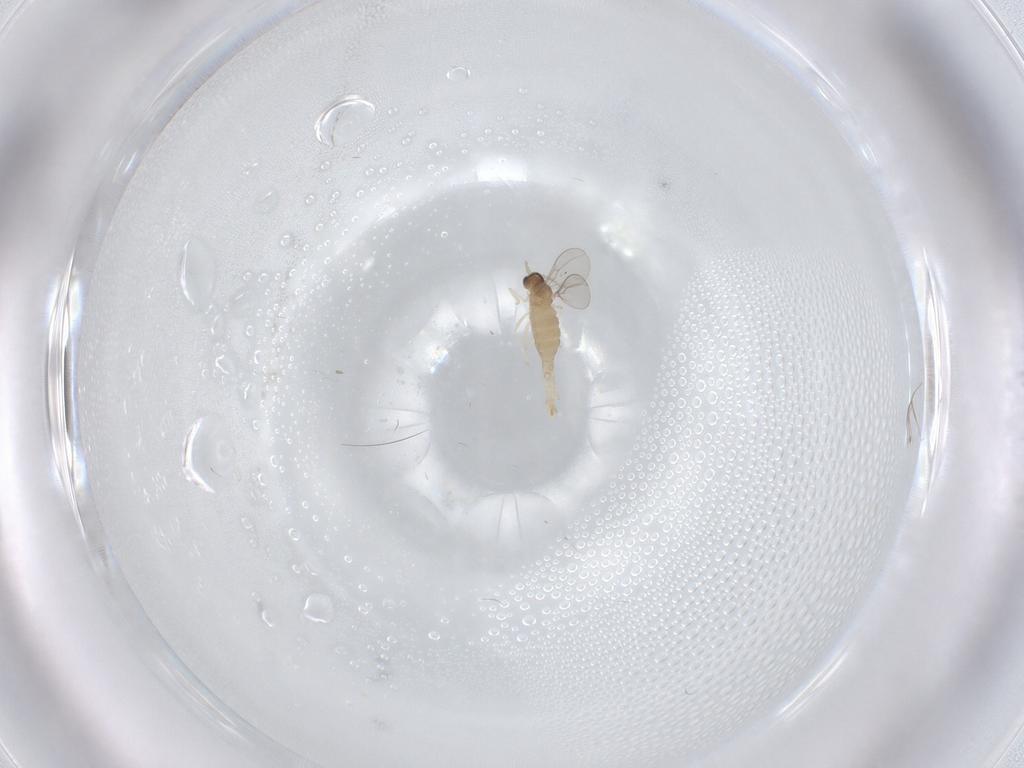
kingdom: Animalia
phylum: Arthropoda
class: Insecta
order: Diptera
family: Cecidomyiidae
